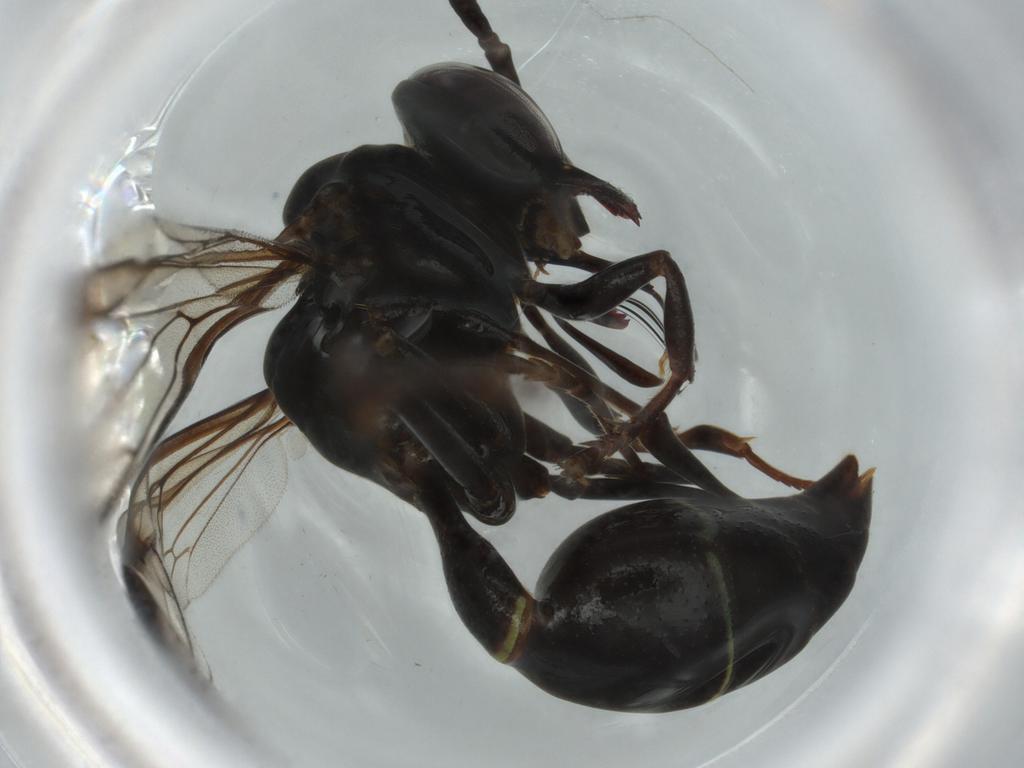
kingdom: Animalia
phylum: Arthropoda
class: Insecta
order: Hymenoptera
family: Vespidae
